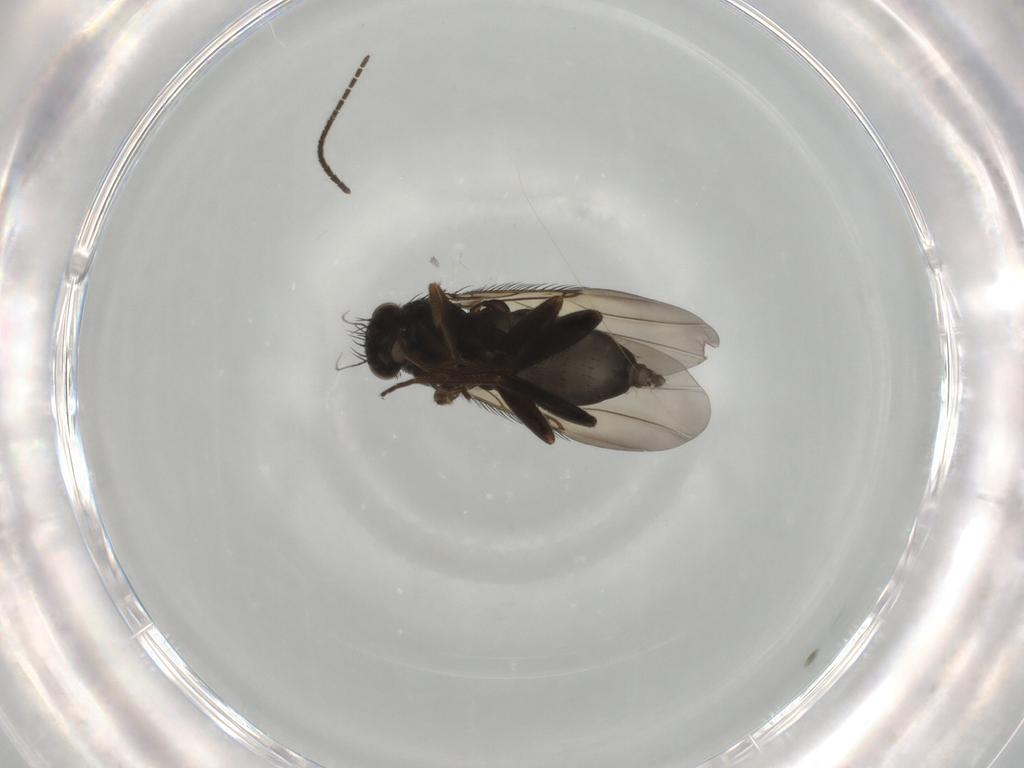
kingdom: Animalia
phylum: Arthropoda
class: Insecta
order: Diptera
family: Phoridae
